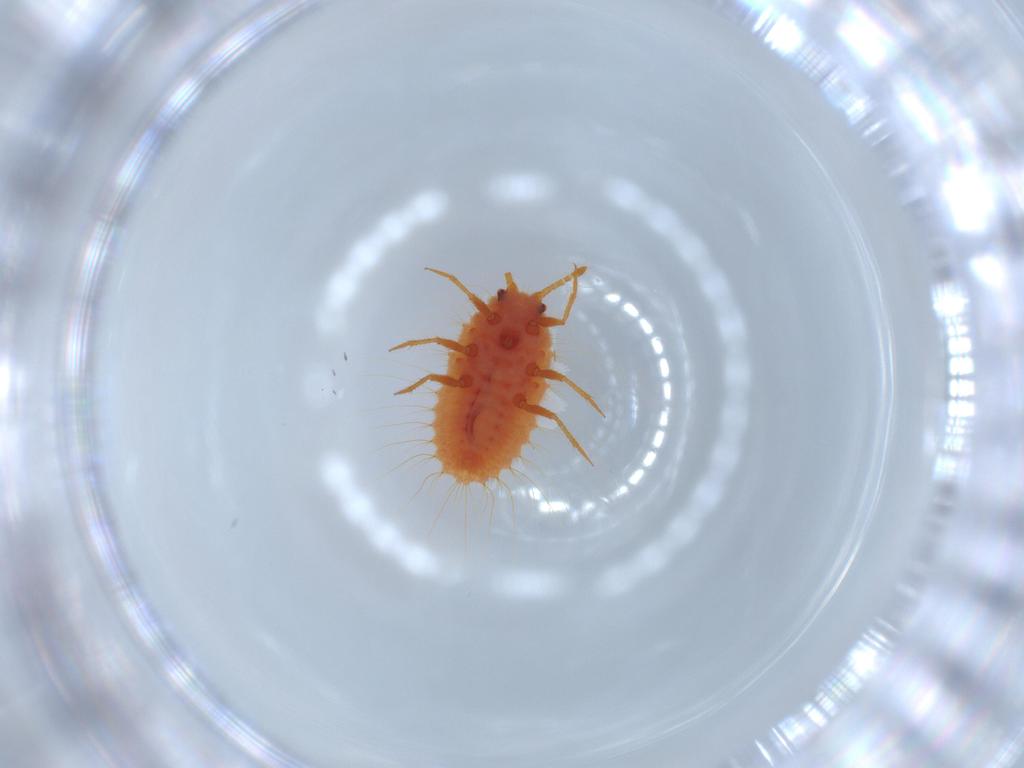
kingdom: Animalia
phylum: Arthropoda
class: Insecta
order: Hemiptera
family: Coccoidea_incertae_sedis
